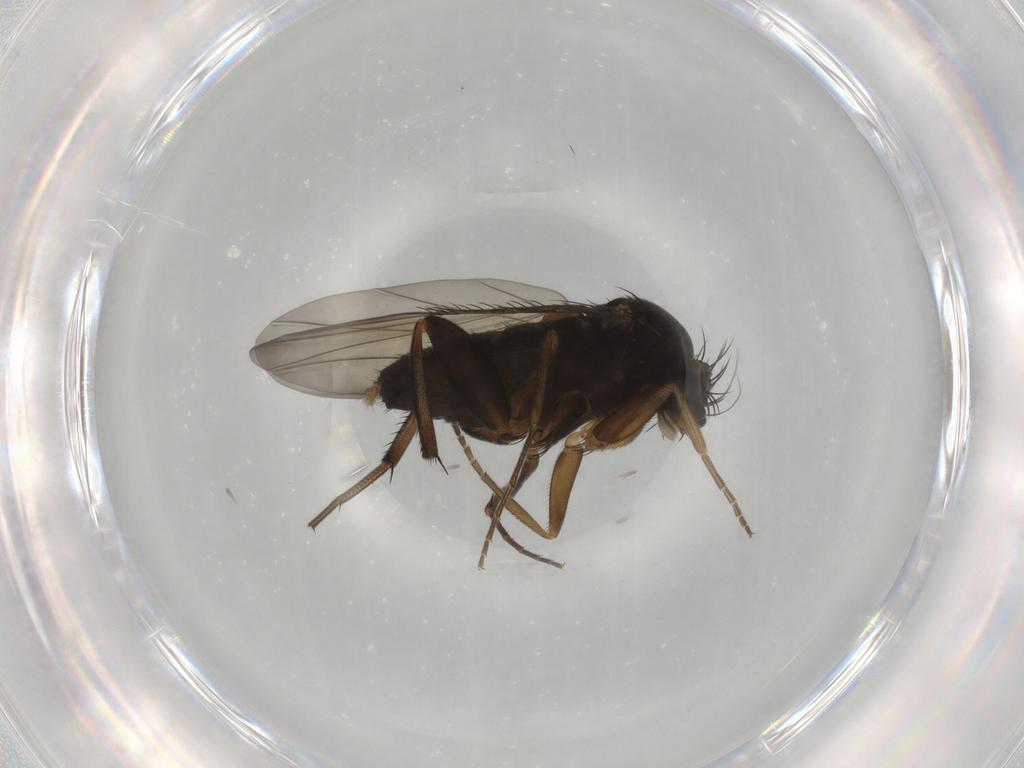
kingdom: Animalia
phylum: Arthropoda
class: Insecta
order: Diptera
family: Phoridae
